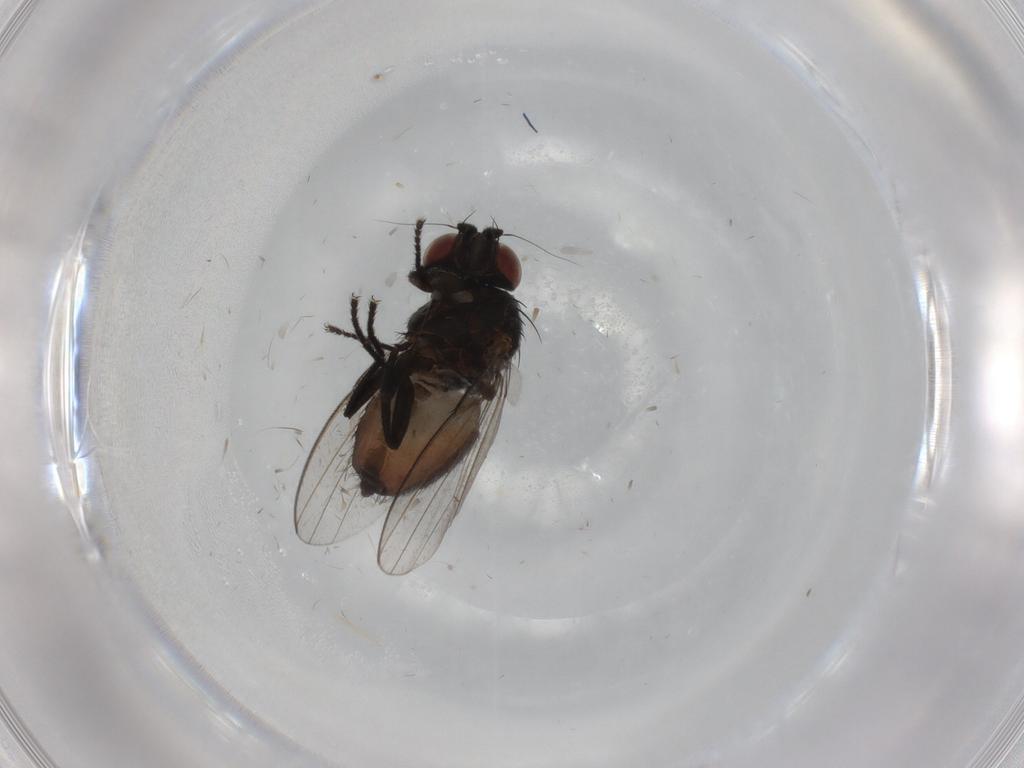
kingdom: Animalia
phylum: Arthropoda
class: Insecta
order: Diptera
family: Milichiidae
